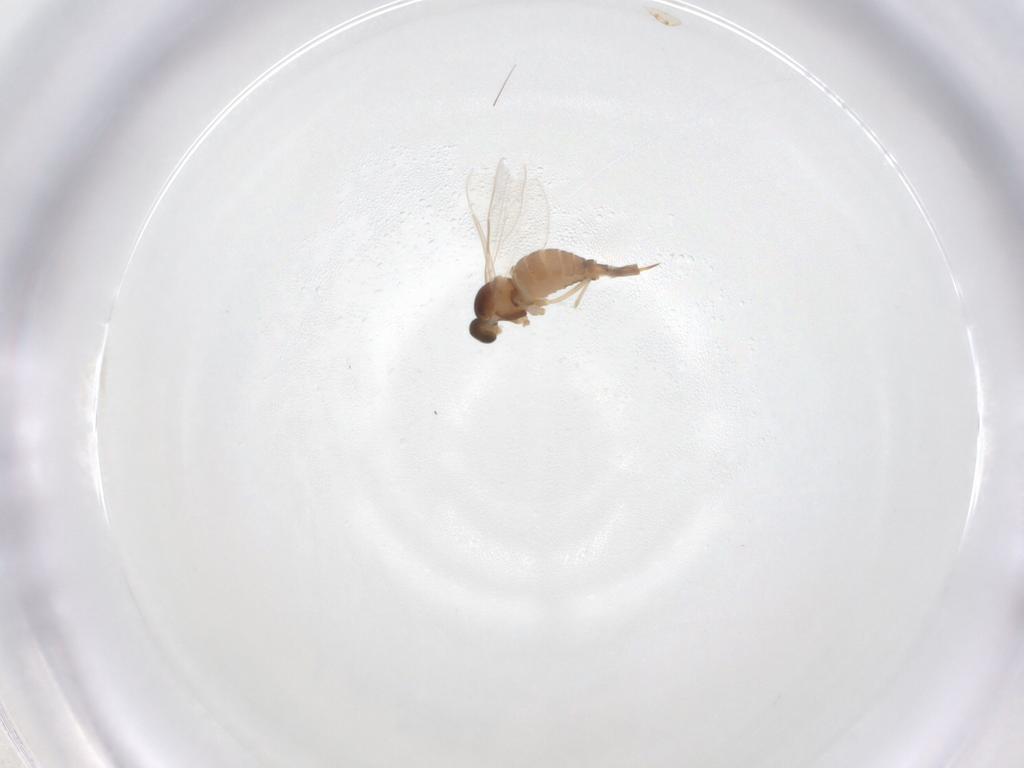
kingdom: Animalia
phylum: Arthropoda
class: Insecta
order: Diptera
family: Cecidomyiidae
